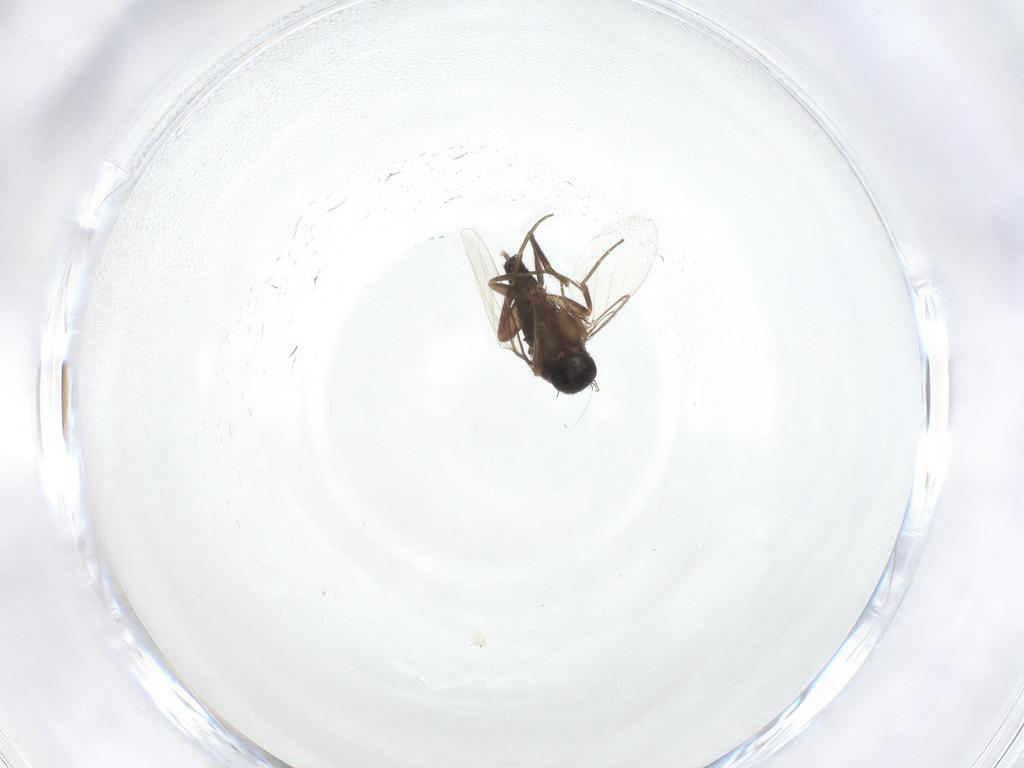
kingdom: Animalia
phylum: Arthropoda
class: Insecta
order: Diptera
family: Phoridae
